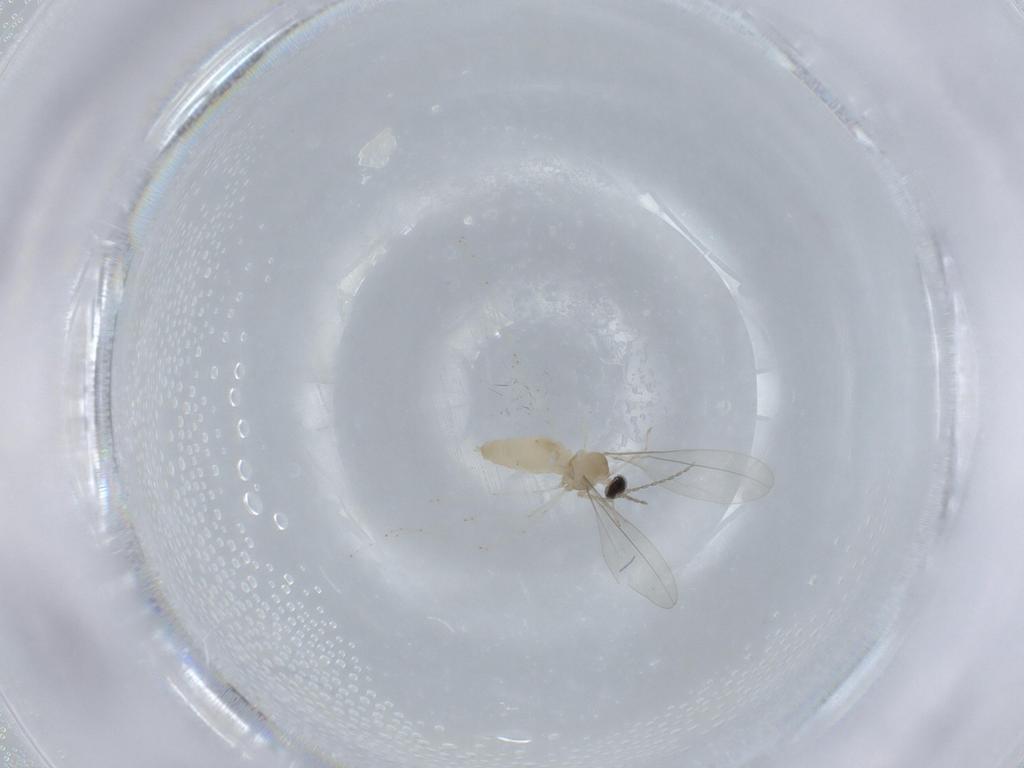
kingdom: Animalia
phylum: Arthropoda
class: Insecta
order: Diptera
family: Cecidomyiidae
